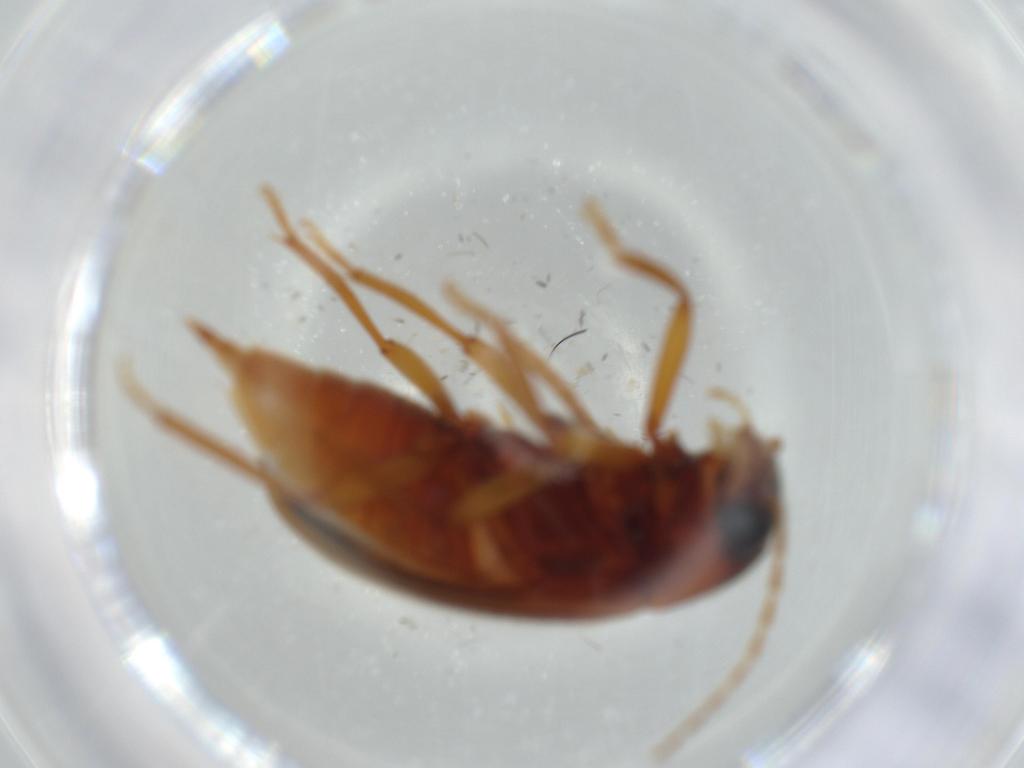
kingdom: Animalia
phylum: Arthropoda
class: Insecta
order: Coleoptera
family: Ptilodactylidae
